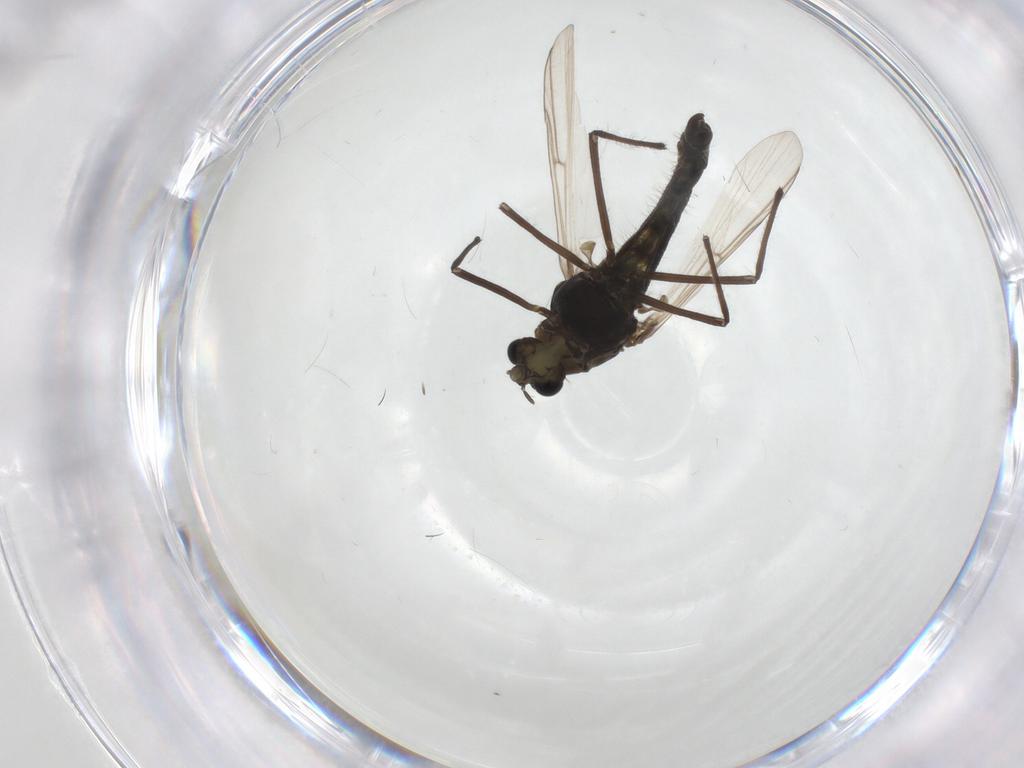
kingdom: Animalia
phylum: Arthropoda
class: Insecta
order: Diptera
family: Chironomidae
